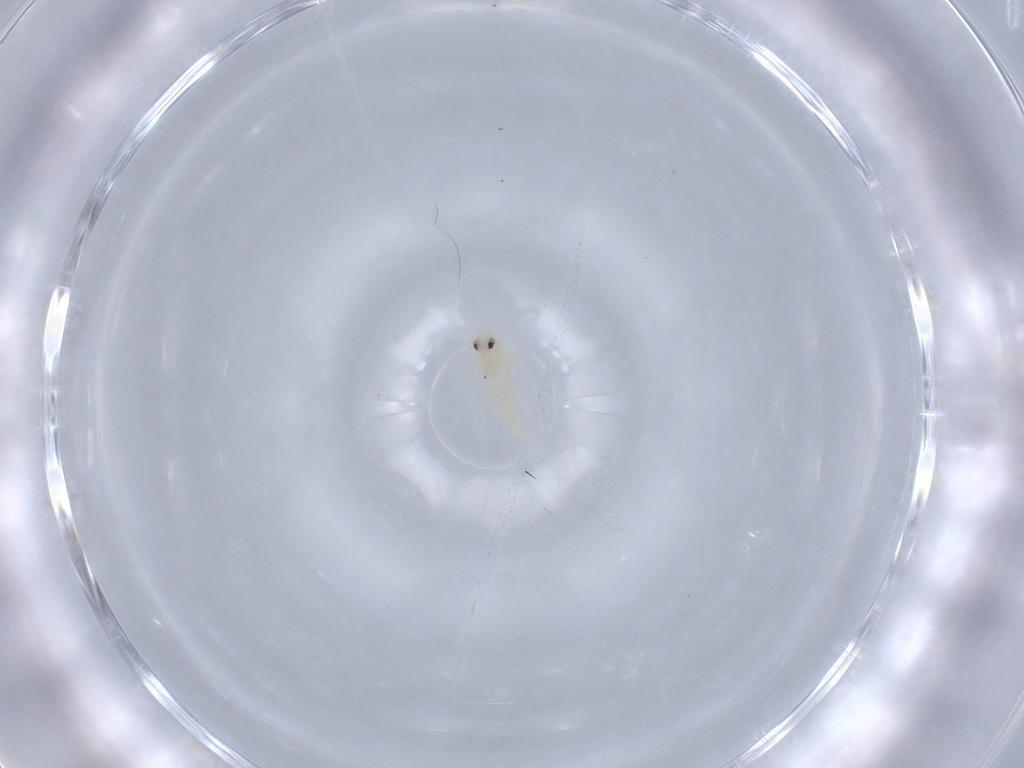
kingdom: Animalia
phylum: Arthropoda
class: Insecta
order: Hemiptera
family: Aleyrodidae
